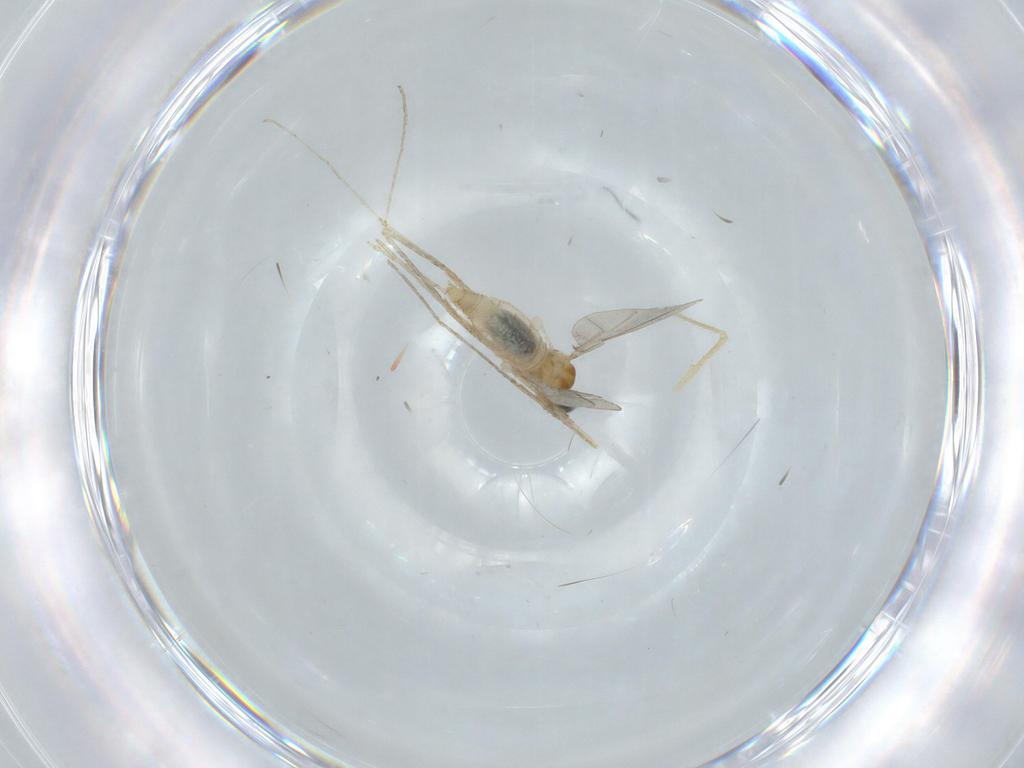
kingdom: Animalia
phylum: Arthropoda
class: Insecta
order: Diptera
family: Cecidomyiidae
